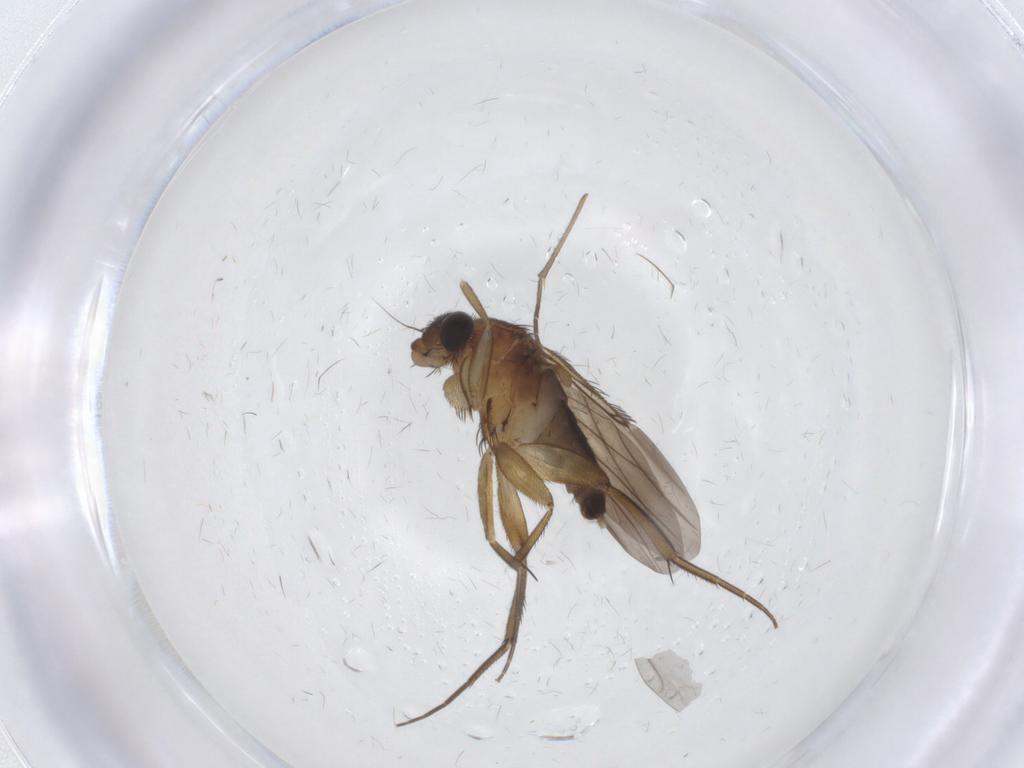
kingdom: Animalia
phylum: Arthropoda
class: Insecta
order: Diptera
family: Phoridae
